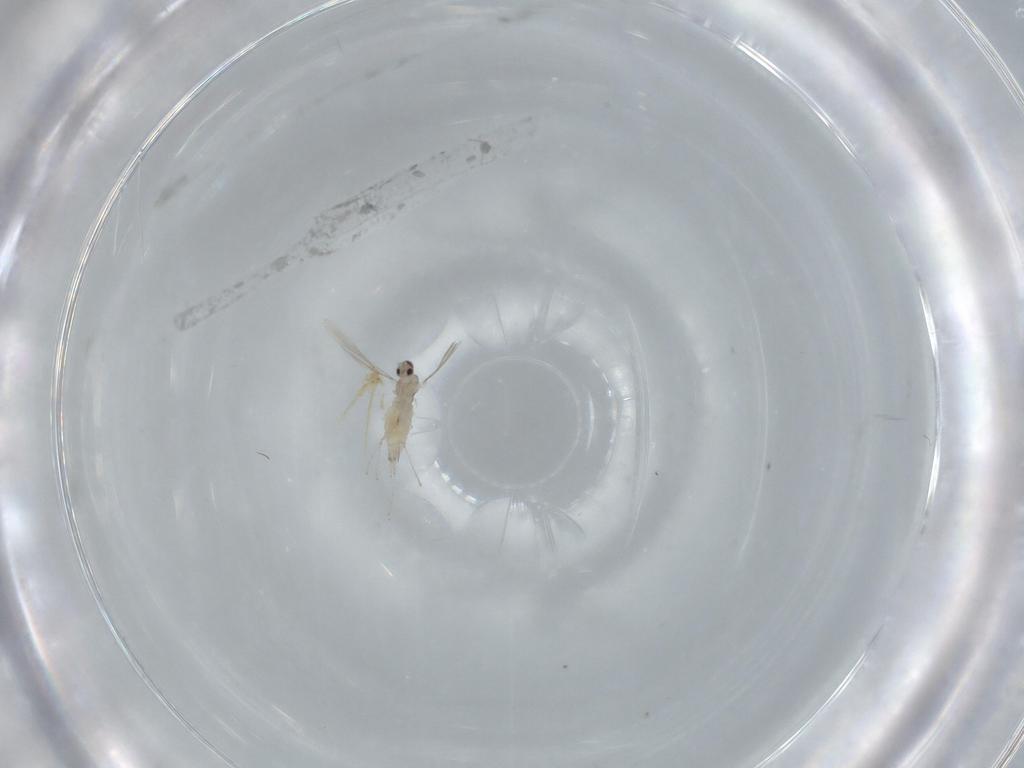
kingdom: Animalia
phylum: Arthropoda
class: Insecta
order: Diptera
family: Cecidomyiidae
